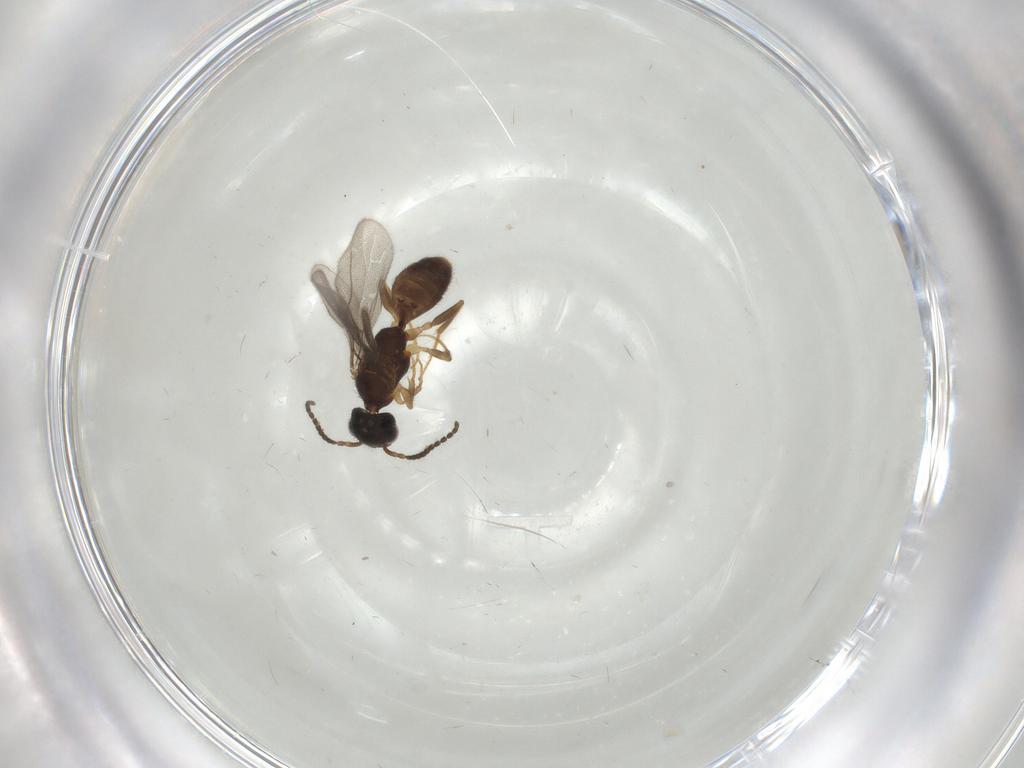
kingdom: Animalia
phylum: Arthropoda
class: Insecta
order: Hymenoptera
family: Bethylidae
